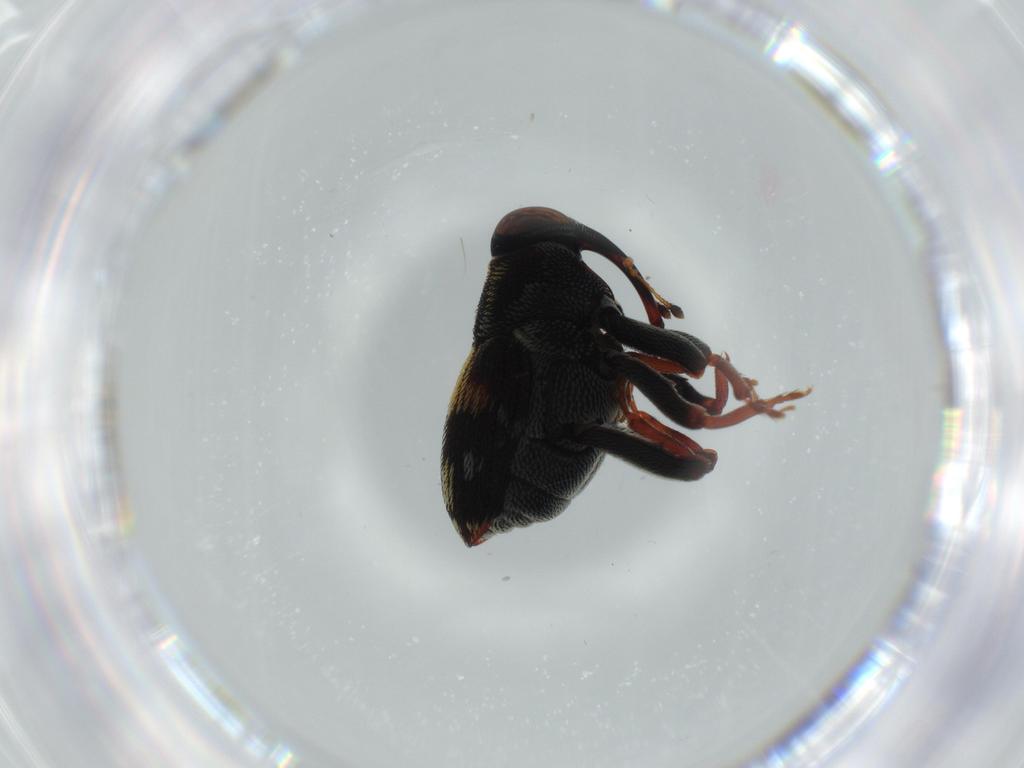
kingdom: Animalia
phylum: Arthropoda
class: Insecta
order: Coleoptera
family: Curculionidae
